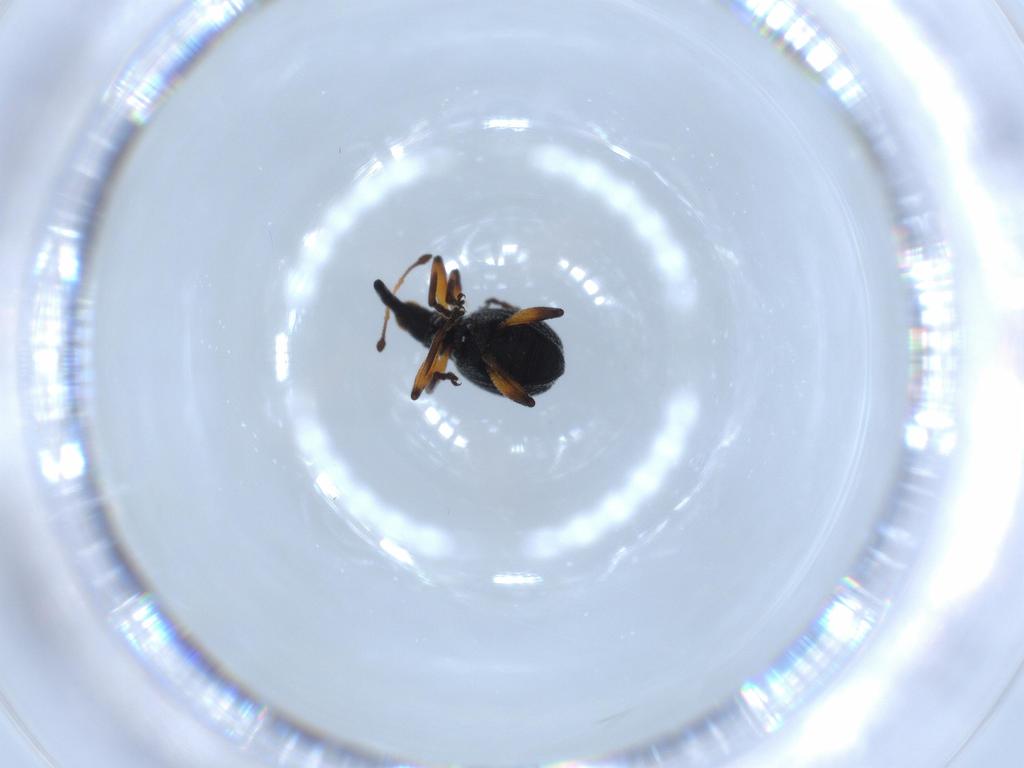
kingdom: Animalia
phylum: Arthropoda
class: Insecta
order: Coleoptera
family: Brentidae
